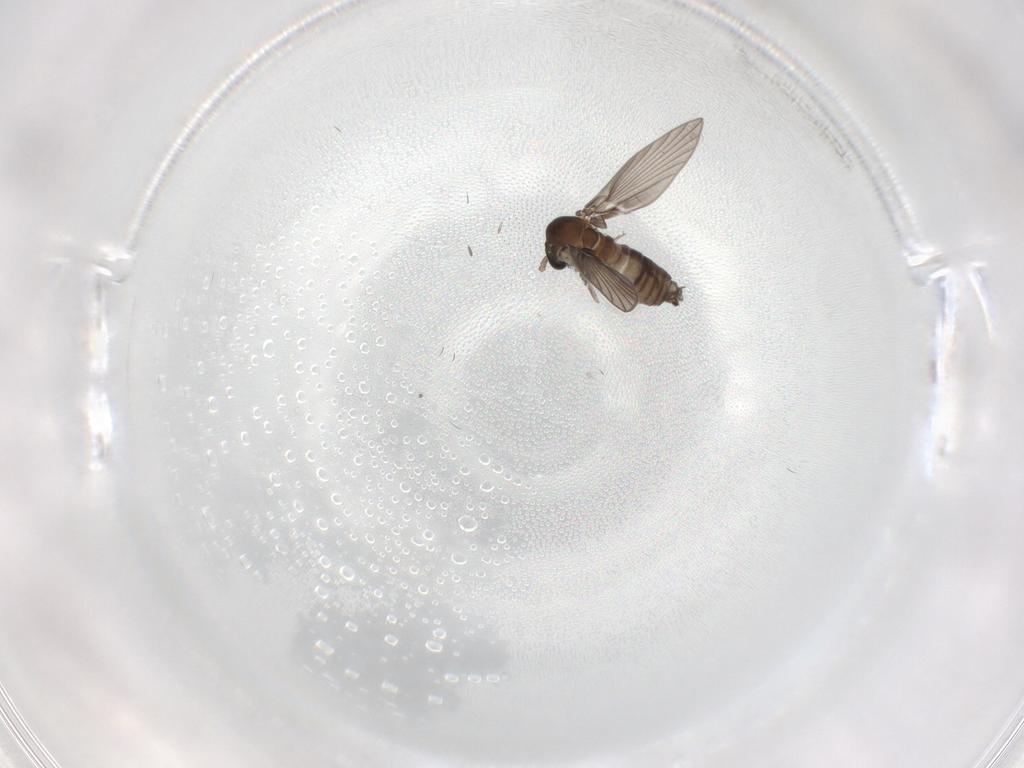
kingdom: Animalia
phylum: Arthropoda
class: Insecta
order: Diptera
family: Psychodidae
